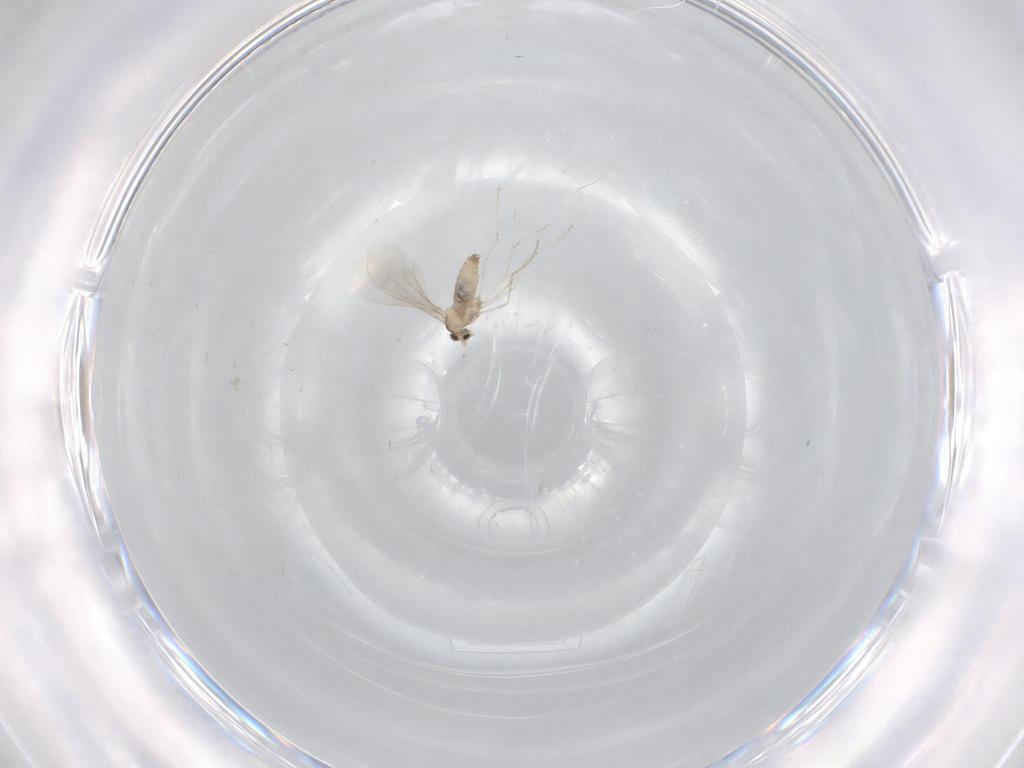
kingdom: Animalia
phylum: Arthropoda
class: Insecta
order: Diptera
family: Cecidomyiidae
